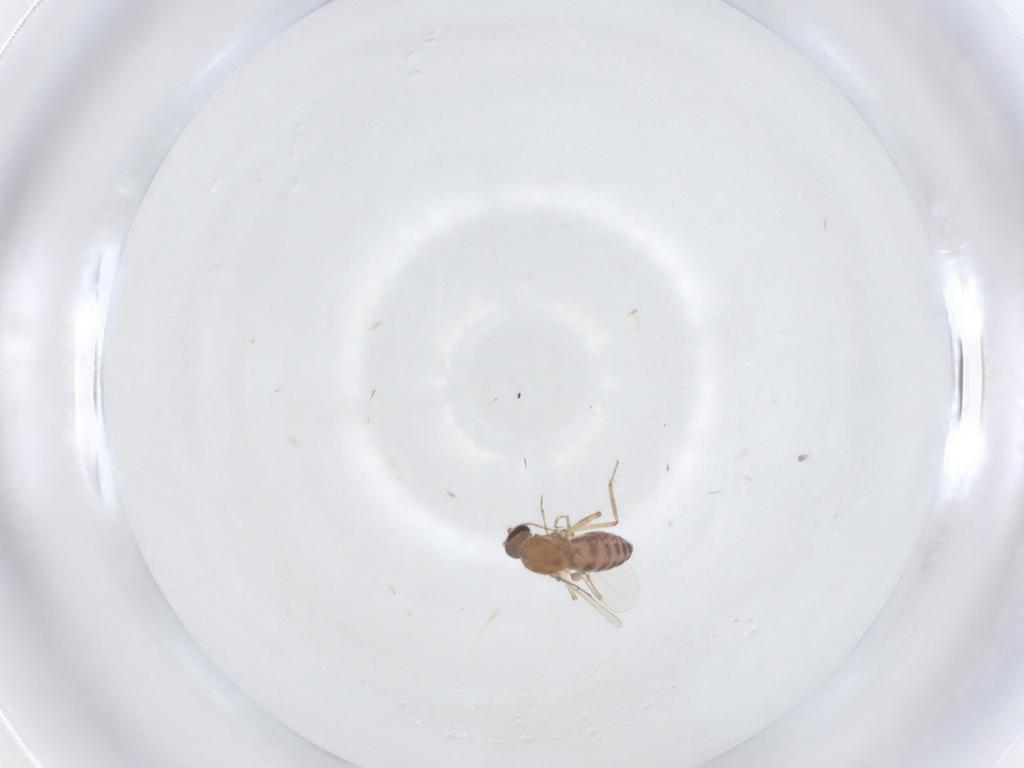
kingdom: Animalia
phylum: Arthropoda
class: Insecta
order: Diptera
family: Ceratopogonidae
